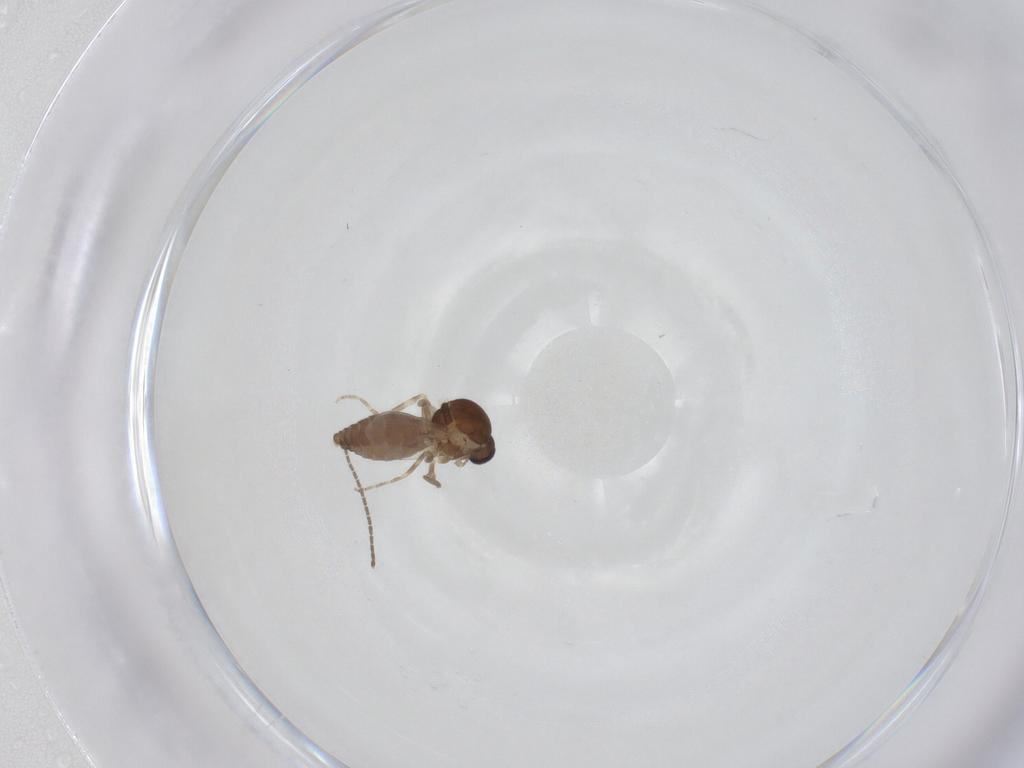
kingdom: Animalia
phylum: Arthropoda
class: Insecta
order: Diptera
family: Ceratopogonidae
